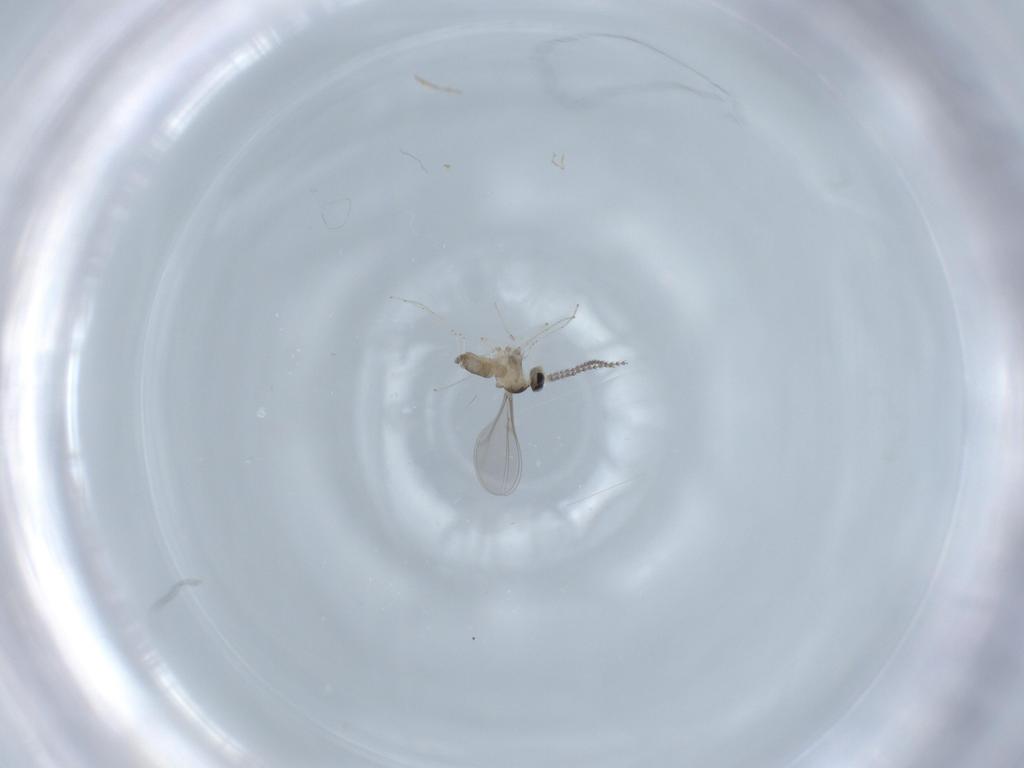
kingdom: Animalia
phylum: Arthropoda
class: Insecta
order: Diptera
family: Cecidomyiidae
